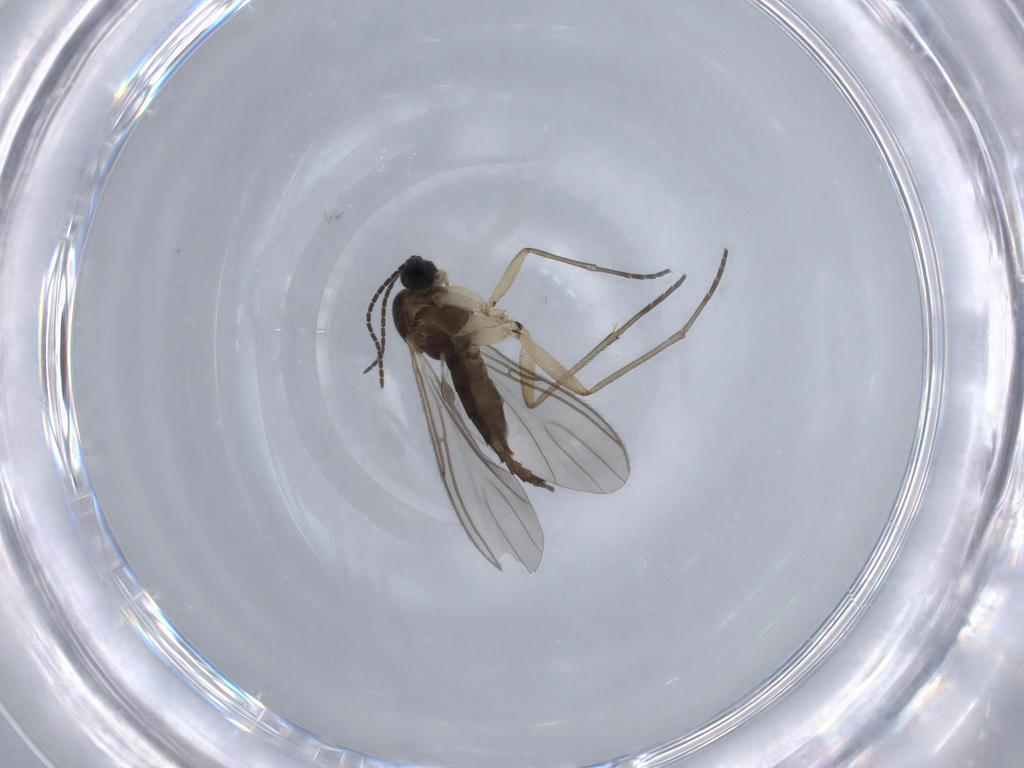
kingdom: Animalia
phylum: Arthropoda
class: Insecta
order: Diptera
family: Sciaridae
